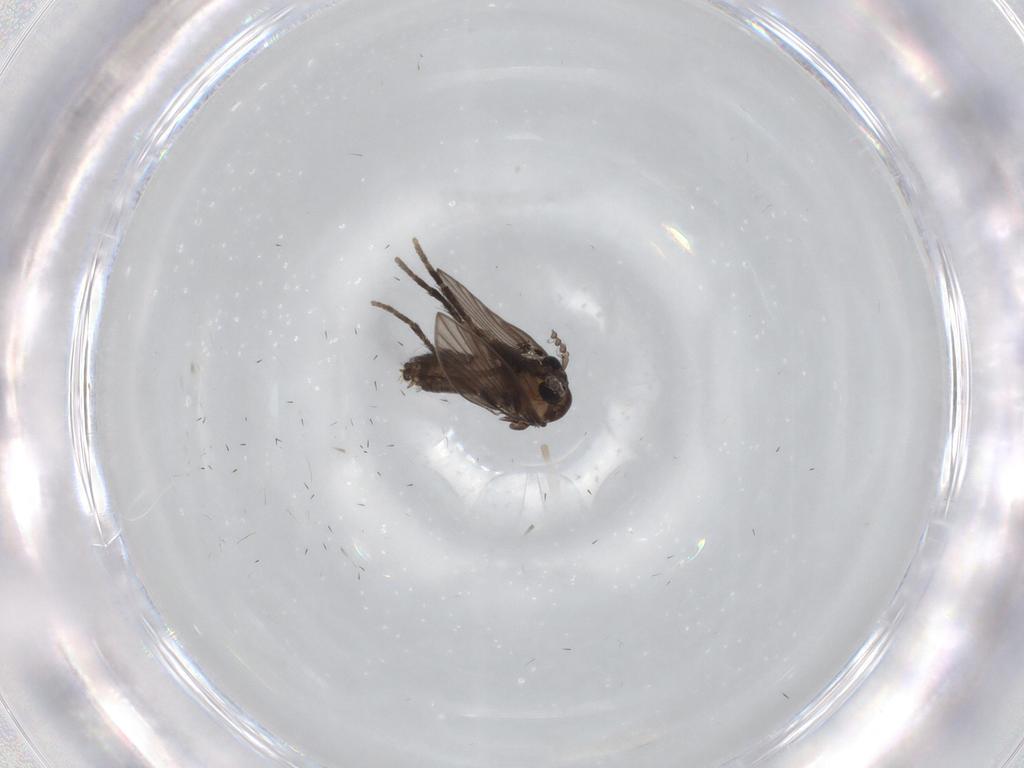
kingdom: Animalia
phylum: Arthropoda
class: Insecta
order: Diptera
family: Psychodidae
